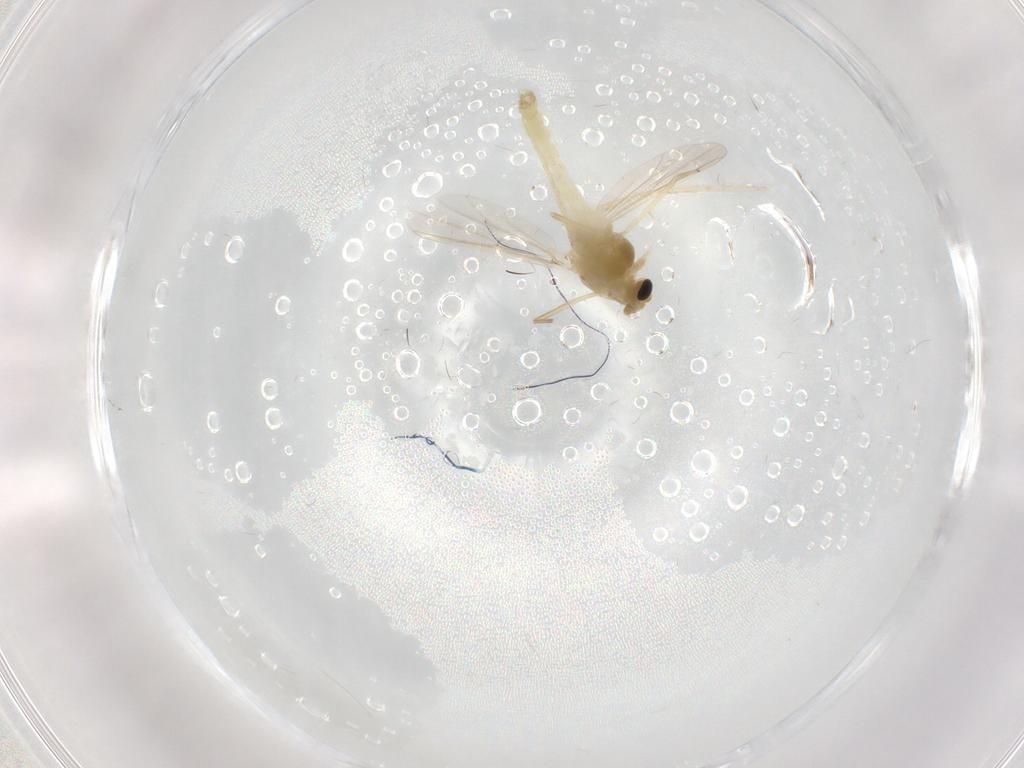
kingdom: Animalia
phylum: Arthropoda
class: Insecta
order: Diptera
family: Chironomidae
